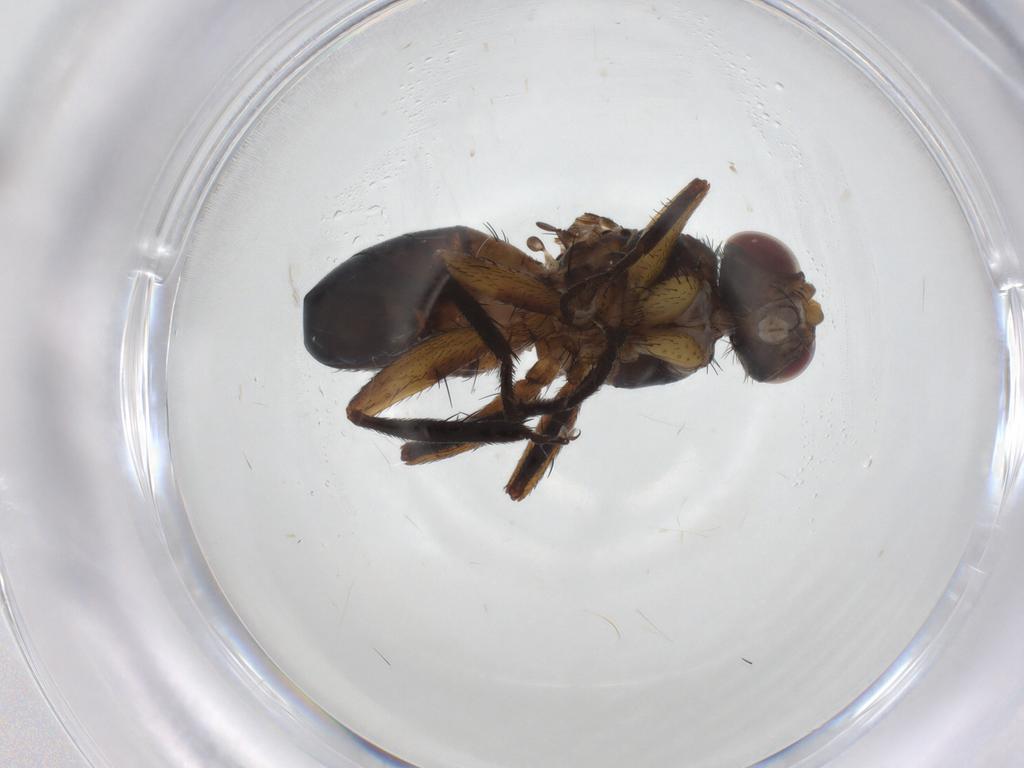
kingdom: Animalia
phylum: Arthropoda
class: Insecta
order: Diptera
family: Tachinidae
